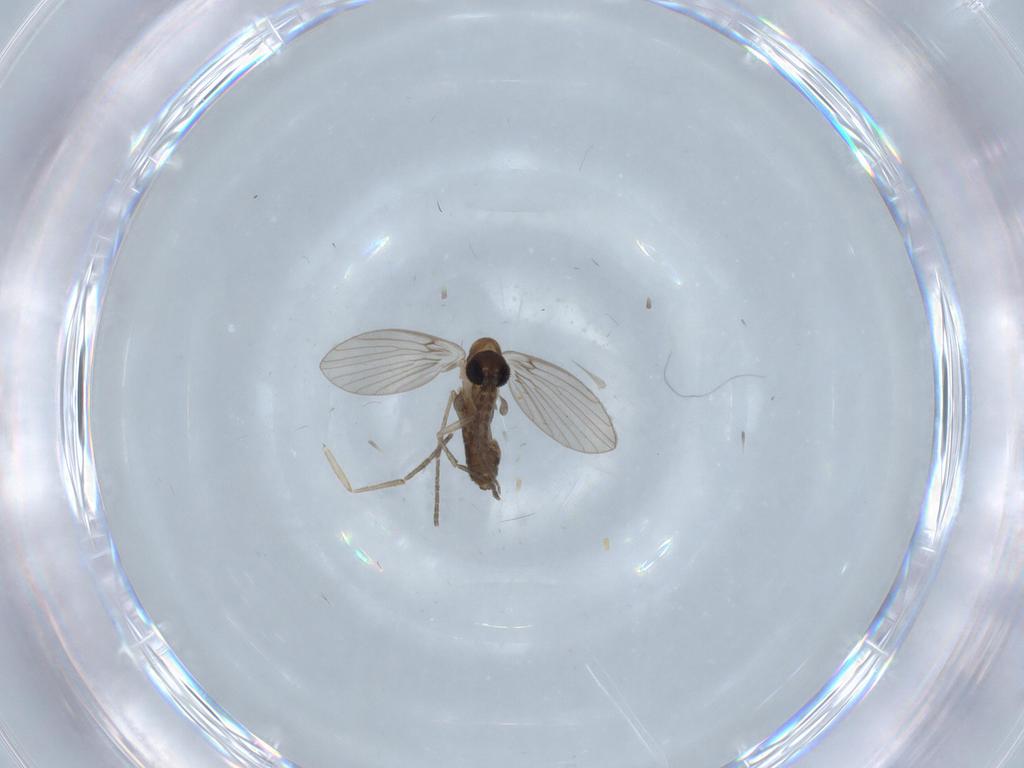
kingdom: Animalia
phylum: Arthropoda
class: Insecta
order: Diptera
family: Psychodidae
